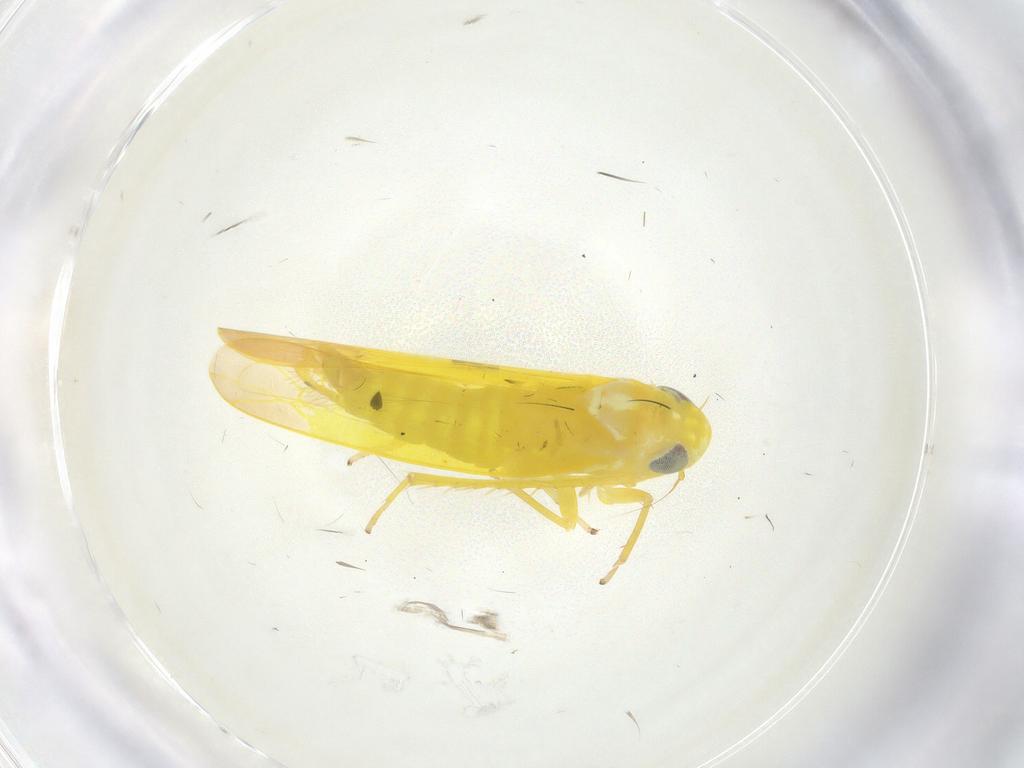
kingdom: Animalia
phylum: Arthropoda
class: Insecta
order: Hemiptera
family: Cicadellidae
